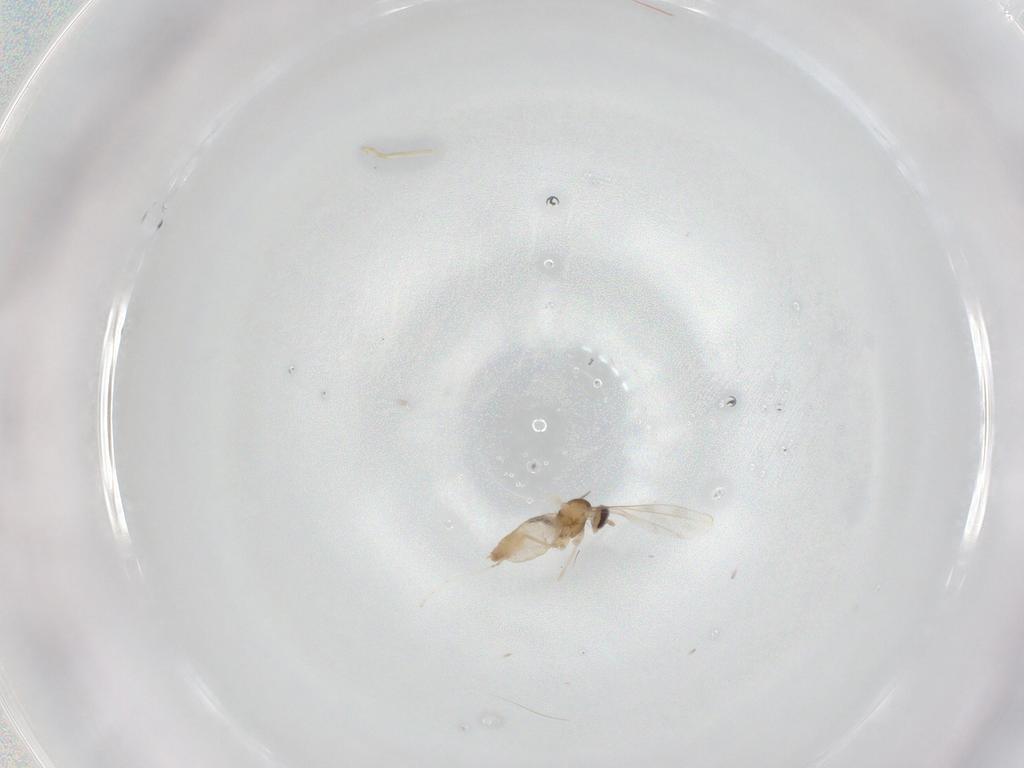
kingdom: Animalia
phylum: Arthropoda
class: Insecta
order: Diptera
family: Cecidomyiidae
